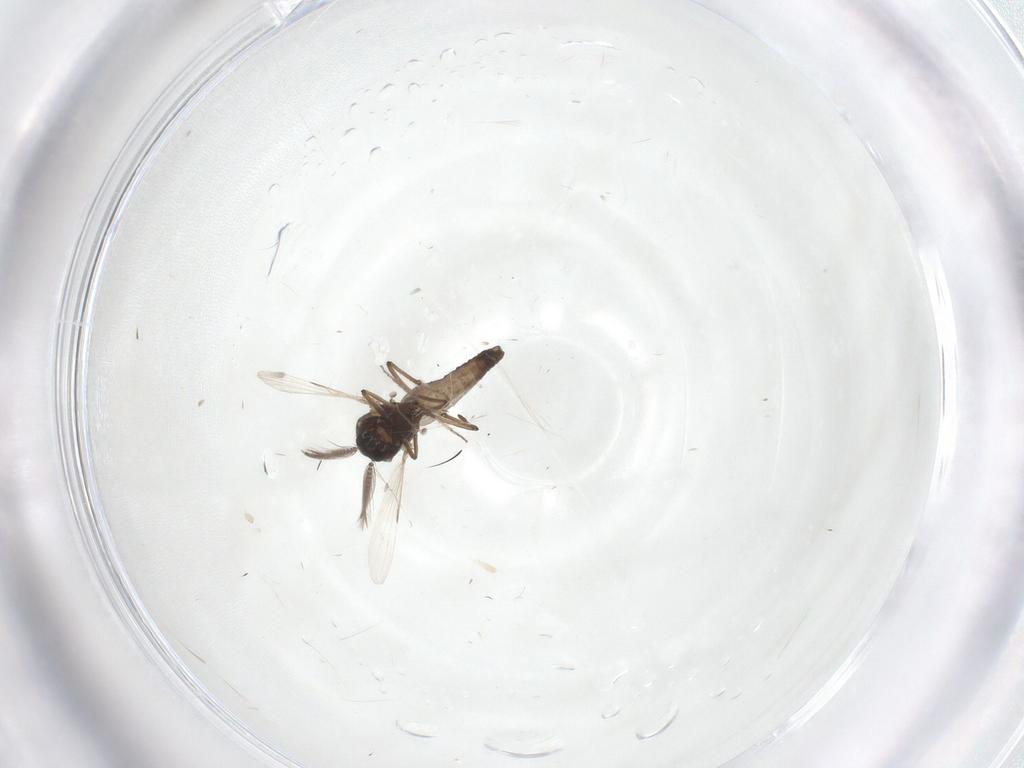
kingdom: Animalia
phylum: Arthropoda
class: Insecta
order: Diptera
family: Ceratopogonidae
